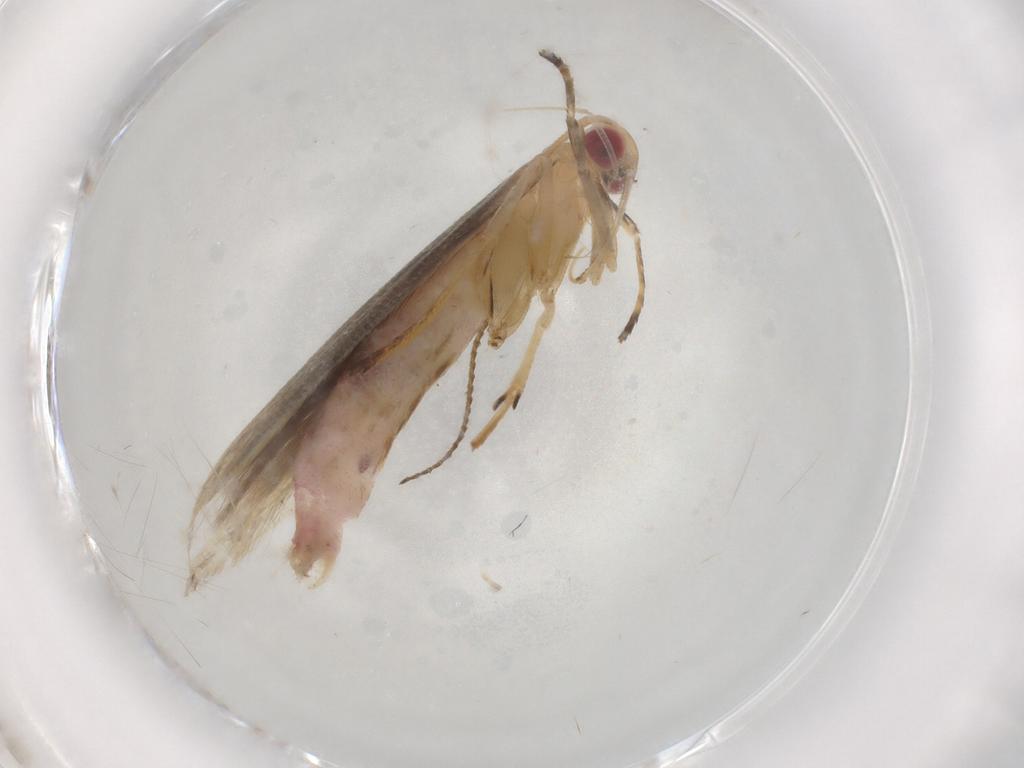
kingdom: Animalia
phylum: Arthropoda
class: Insecta
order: Lepidoptera
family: Cosmopterigidae
